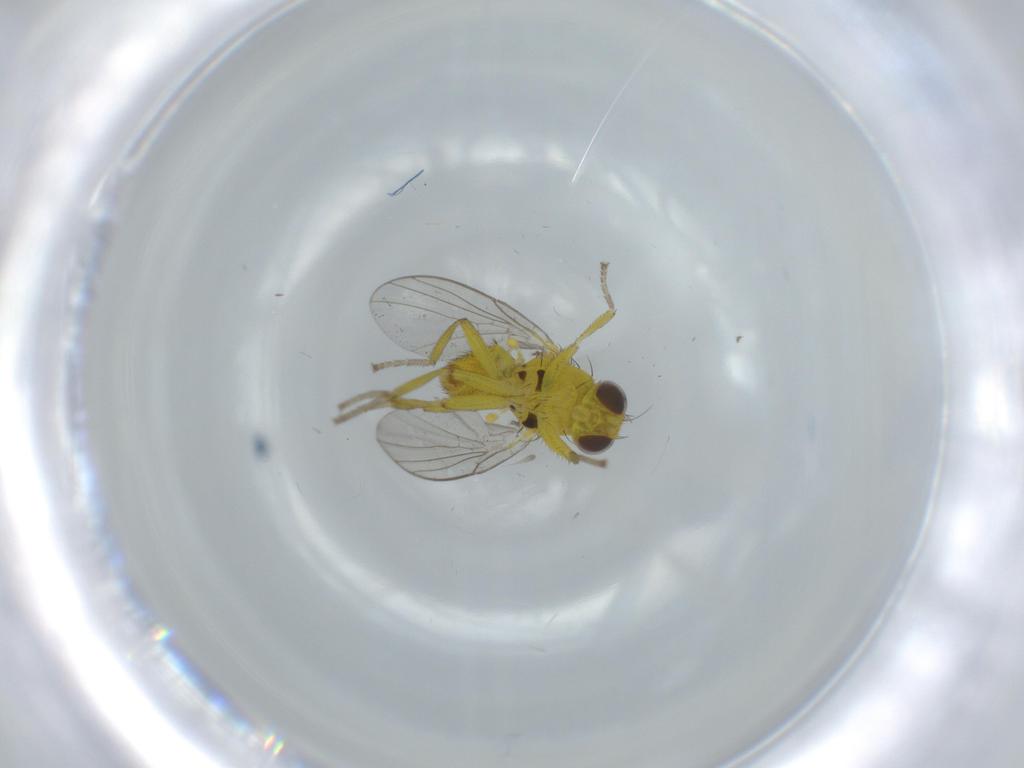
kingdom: Animalia
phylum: Arthropoda
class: Insecta
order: Diptera
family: Agromyzidae
